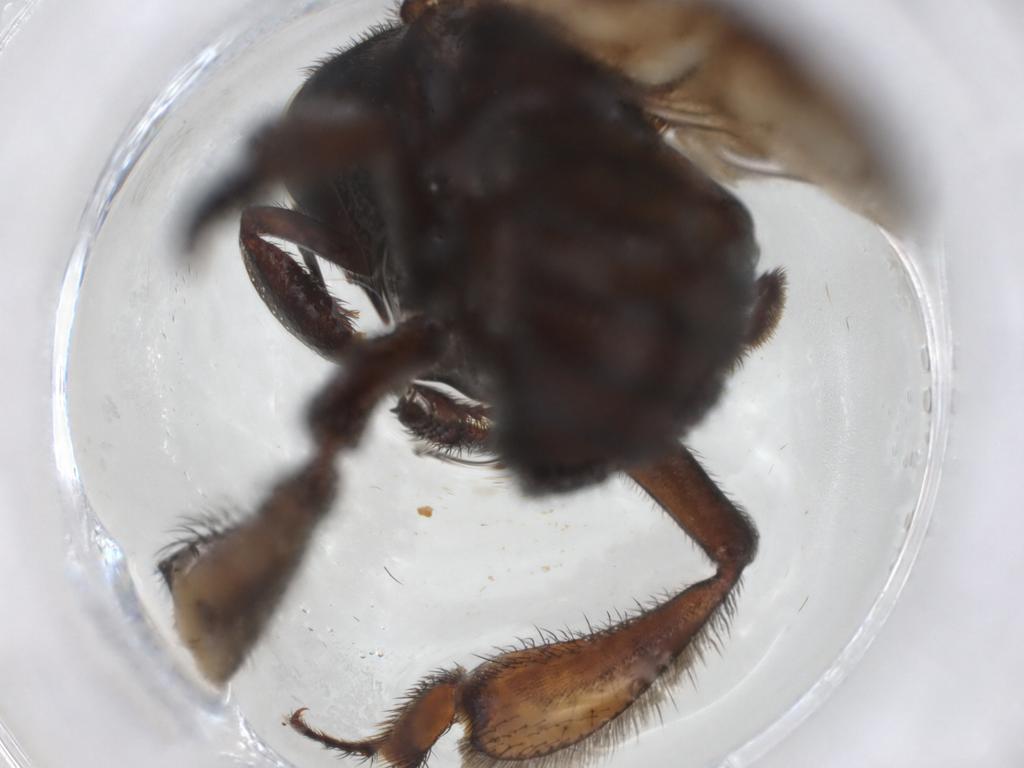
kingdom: Animalia
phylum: Arthropoda
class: Insecta
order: Hymenoptera
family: Apidae
